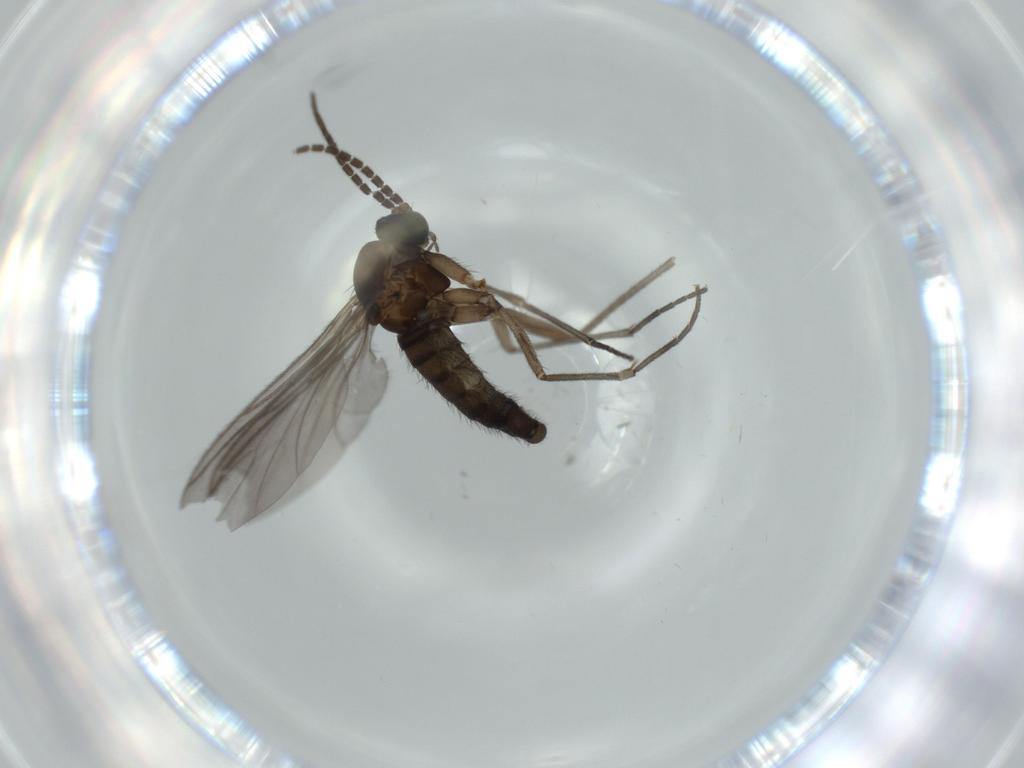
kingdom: Animalia
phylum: Arthropoda
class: Insecta
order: Diptera
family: Sciaridae
